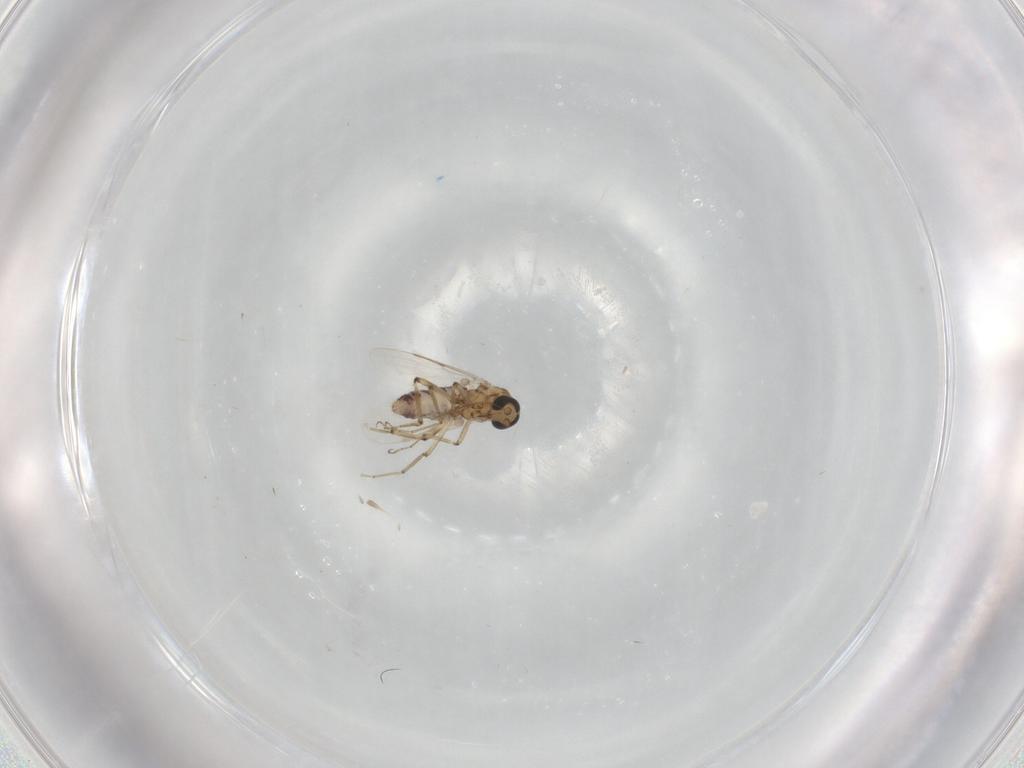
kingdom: Animalia
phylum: Arthropoda
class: Insecta
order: Diptera
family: Ceratopogonidae
